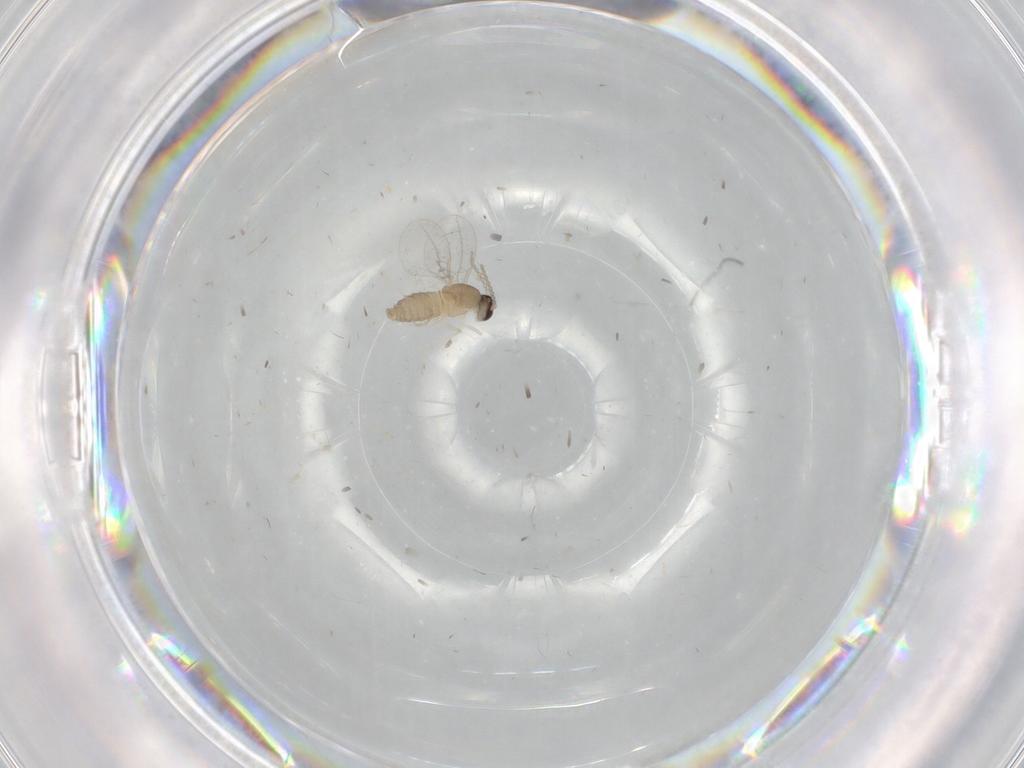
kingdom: Animalia
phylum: Arthropoda
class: Insecta
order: Diptera
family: Cecidomyiidae
